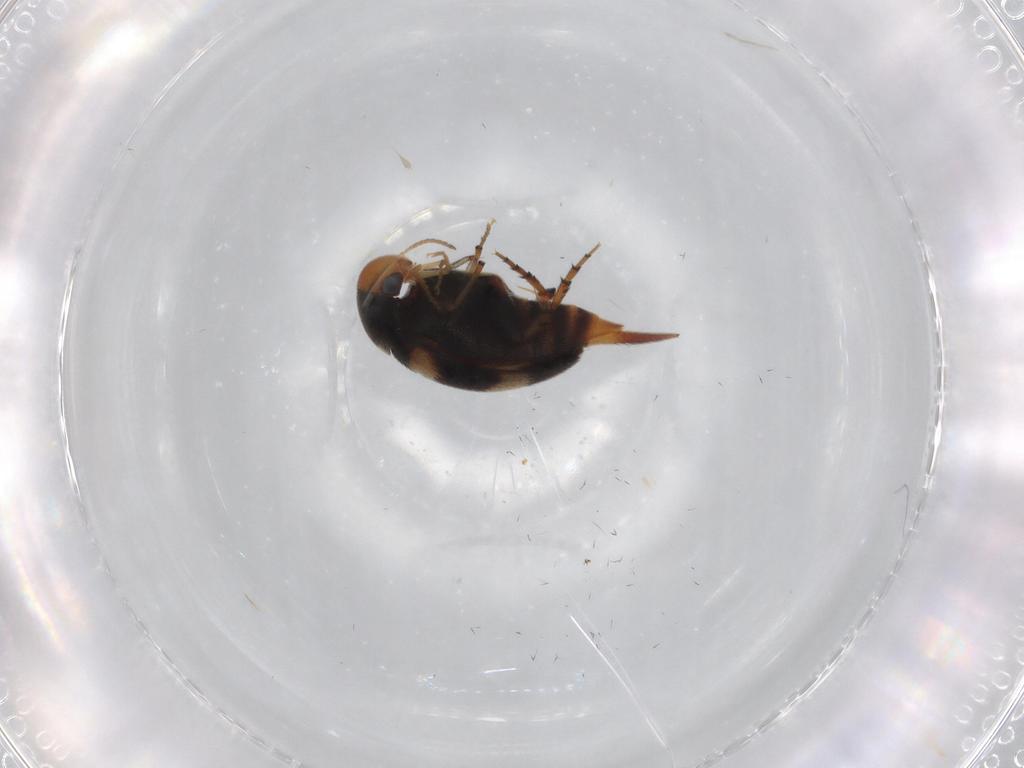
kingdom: Animalia
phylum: Arthropoda
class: Insecta
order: Coleoptera
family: Mordellidae
